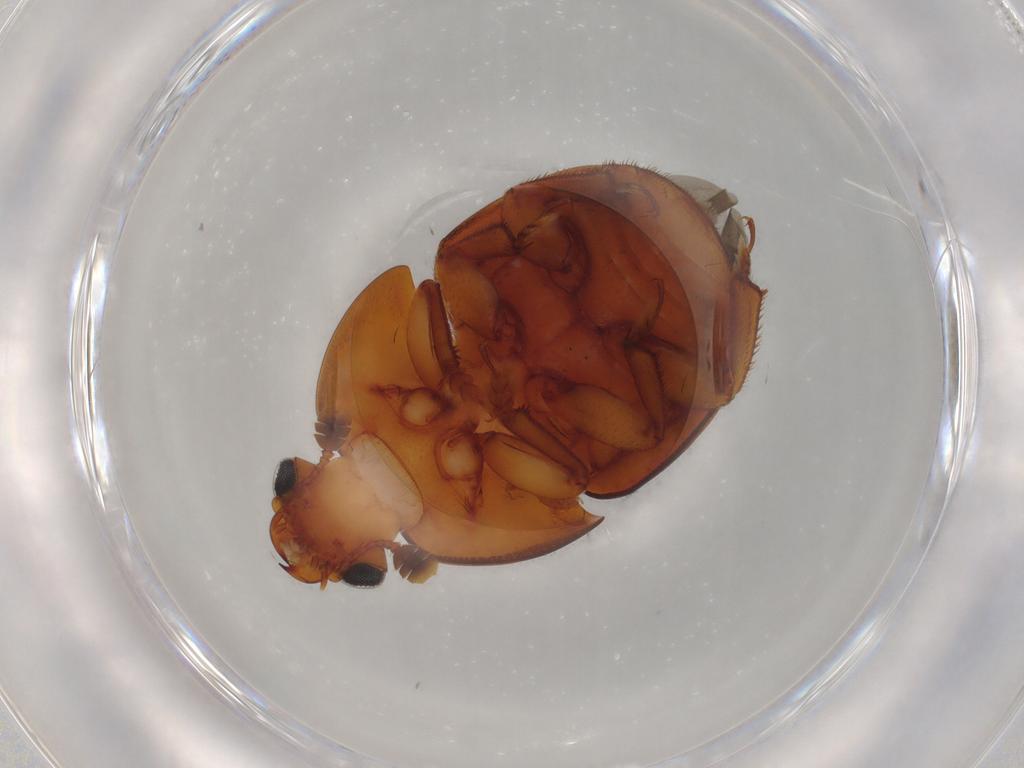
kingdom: Animalia
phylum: Arthropoda
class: Insecta
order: Coleoptera
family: Nitidulidae
